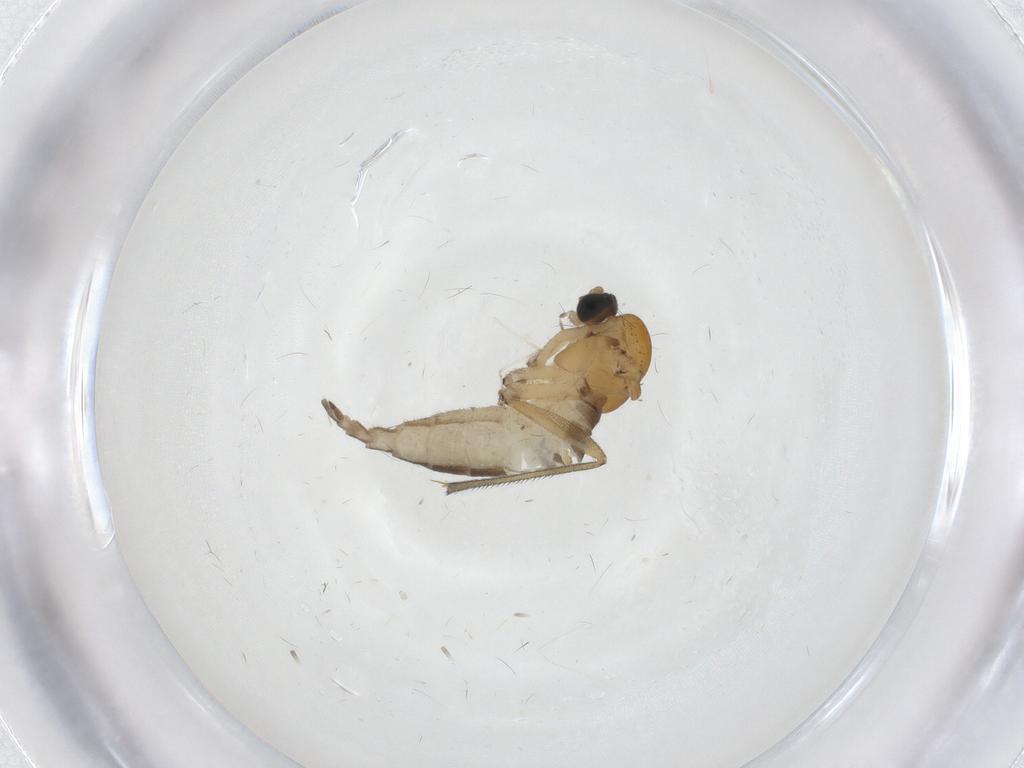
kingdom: Animalia
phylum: Arthropoda
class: Insecta
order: Diptera
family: Sciaridae
